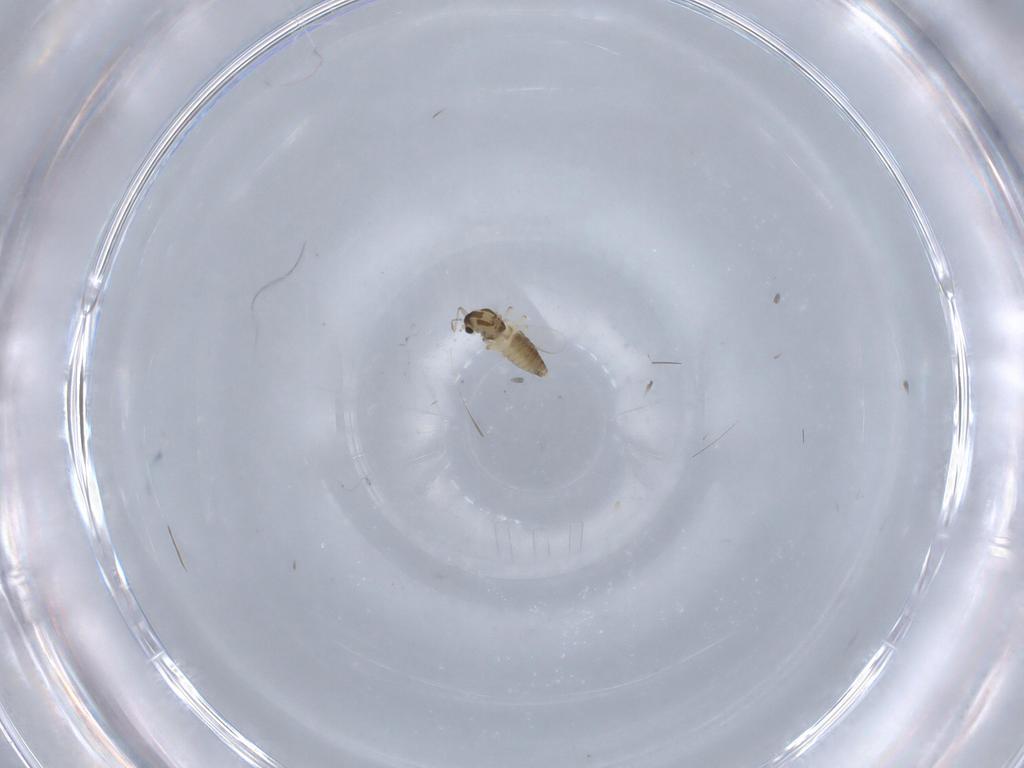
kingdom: Animalia
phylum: Arthropoda
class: Insecta
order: Diptera
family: Chironomidae
